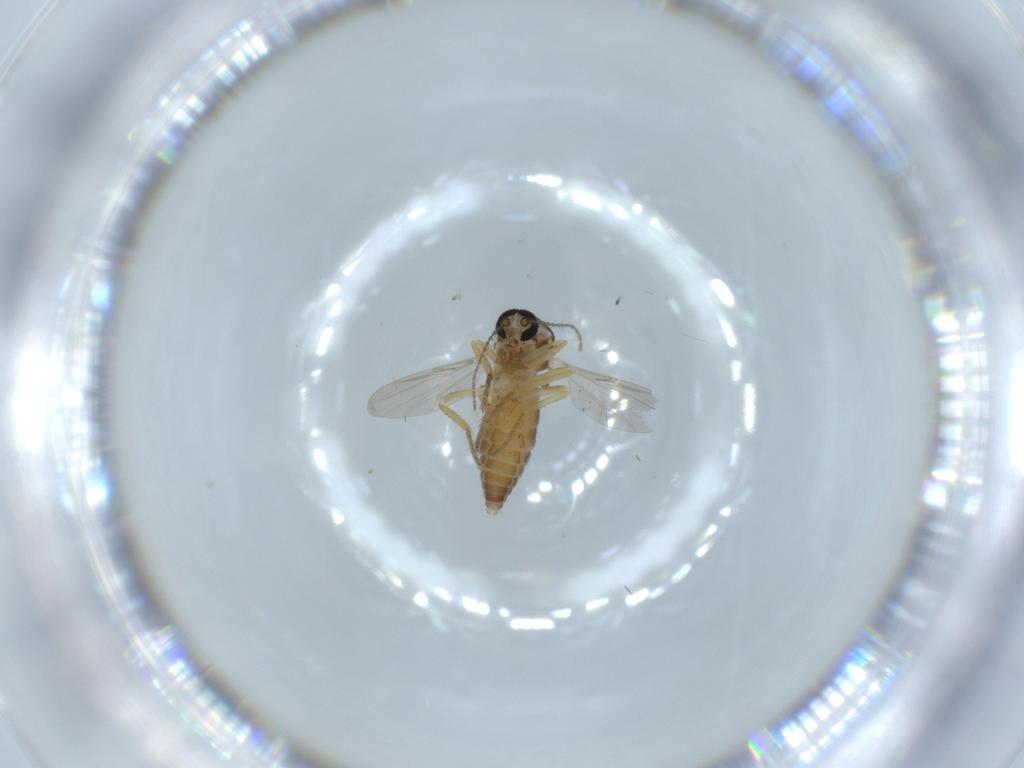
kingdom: Animalia
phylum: Arthropoda
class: Insecta
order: Diptera
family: Ceratopogonidae
